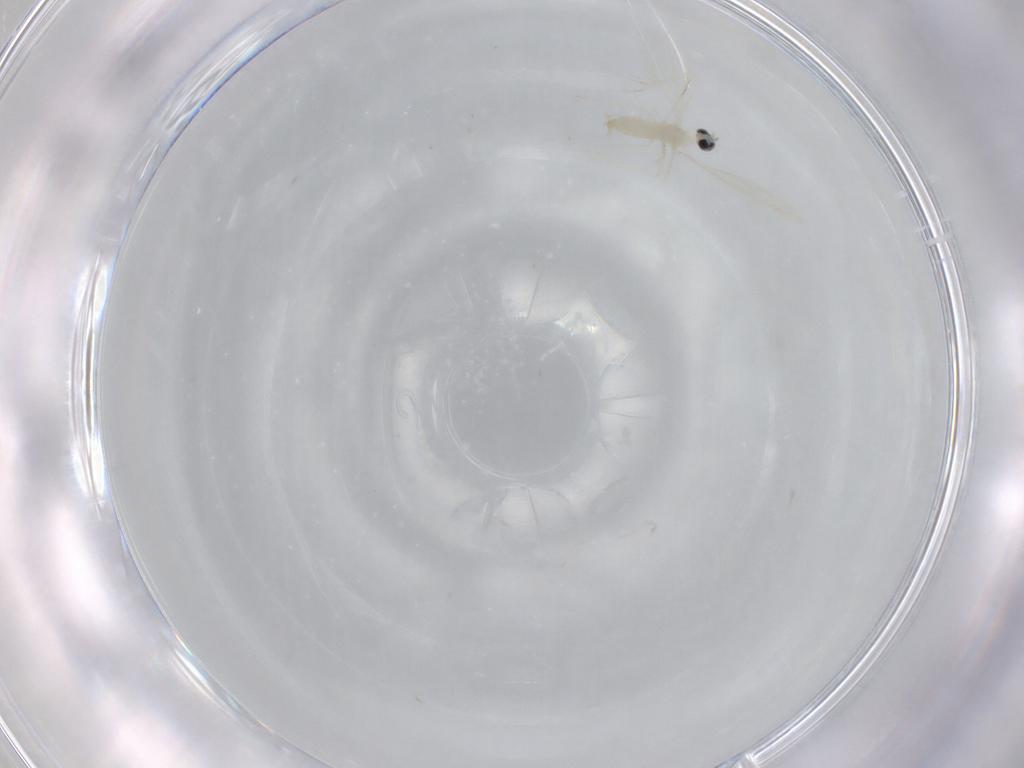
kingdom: Animalia
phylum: Arthropoda
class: Insecta
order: Diptera
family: Cecidomyiidae
